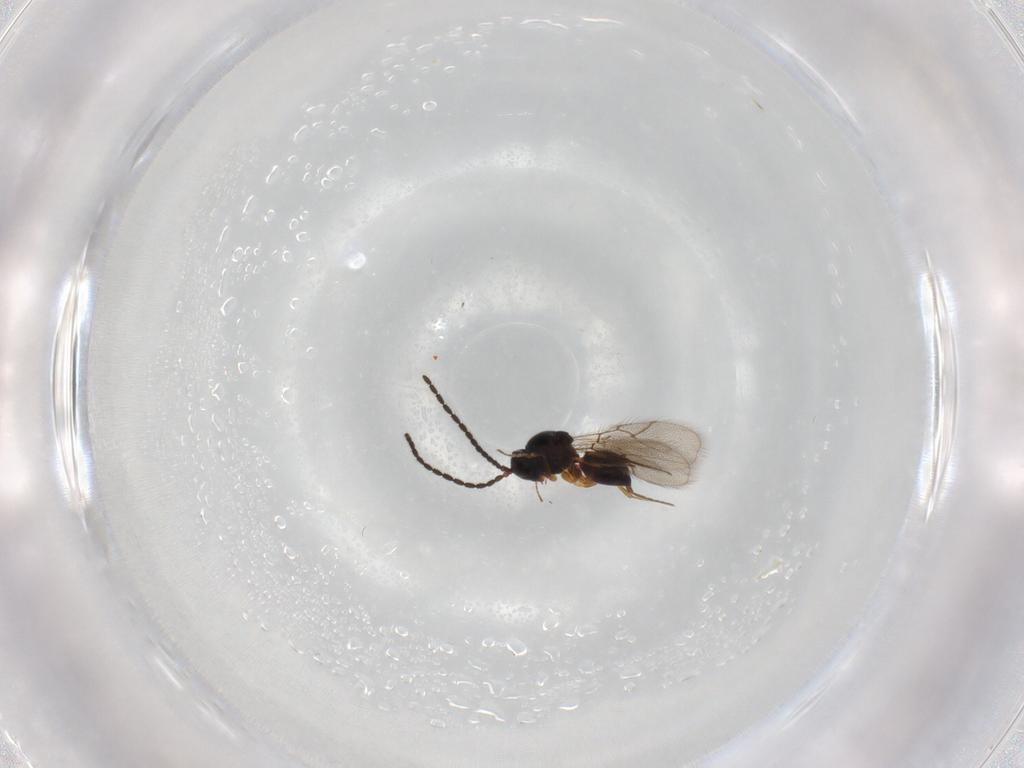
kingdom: Animalia
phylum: Arthropoda
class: Insecta
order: Hymenoptera
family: Figitidae
